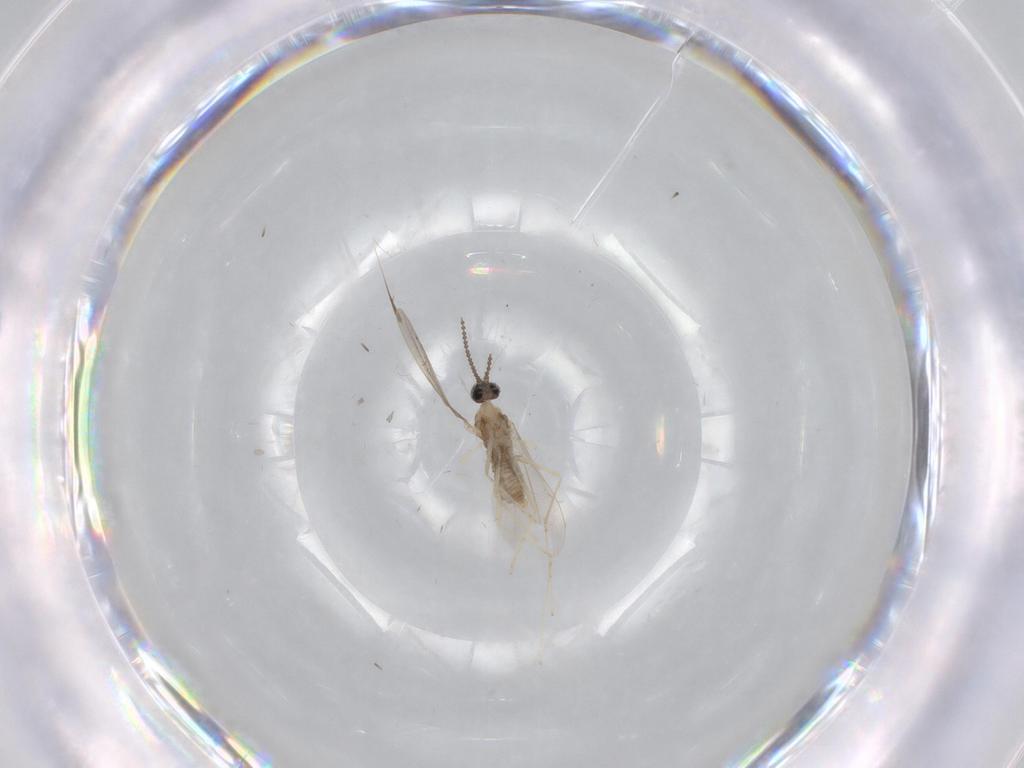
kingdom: Animalia
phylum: Arthropoda
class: Insecta
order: Diptera
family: Cecidomyiidae
